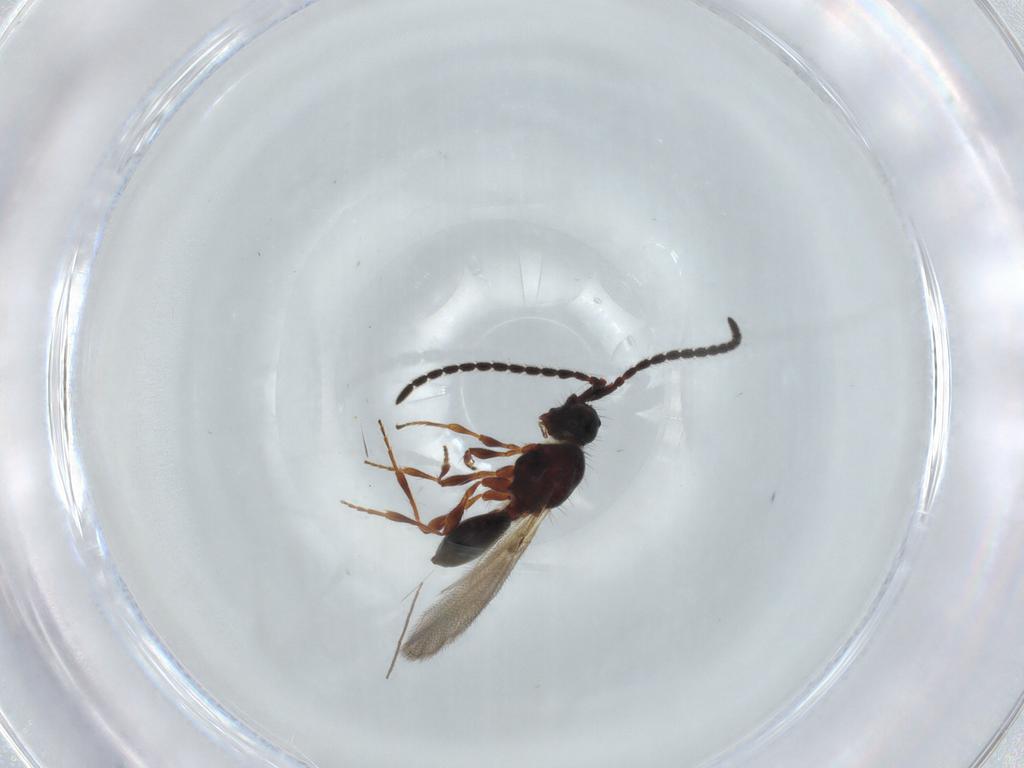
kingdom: Animalia
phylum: Arthropoda
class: Insecta
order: Hymenoptera
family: Diapriidae
